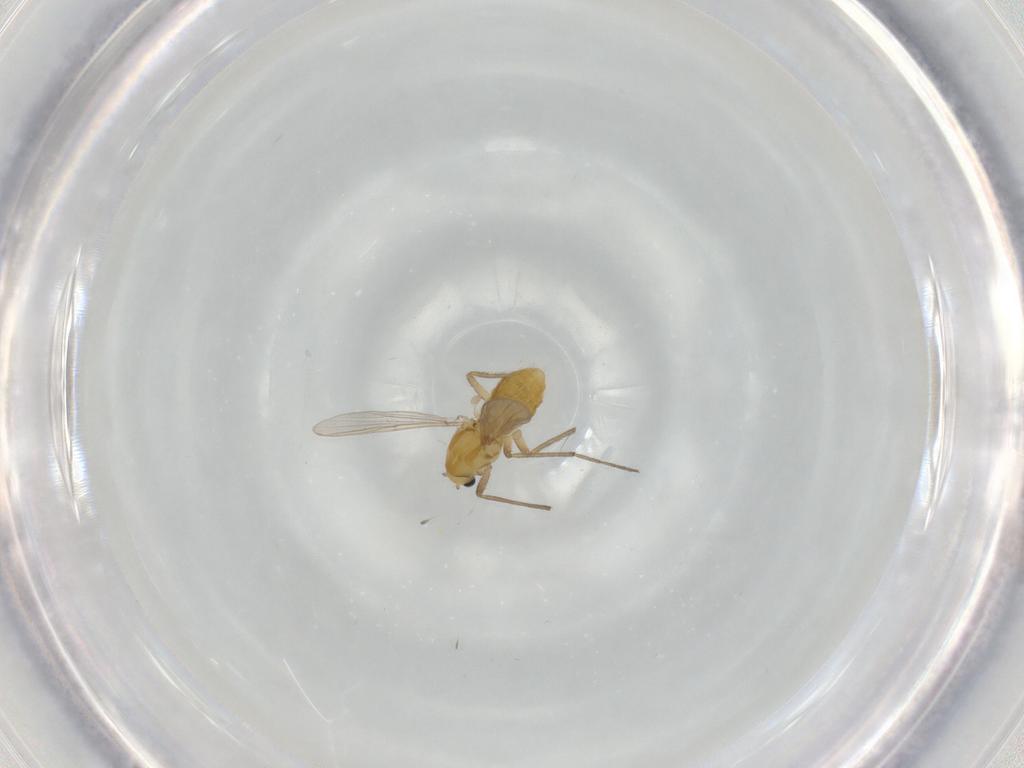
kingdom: Animalia
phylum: Arthropoda
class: Insecta
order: Diptera
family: Chironomidae
